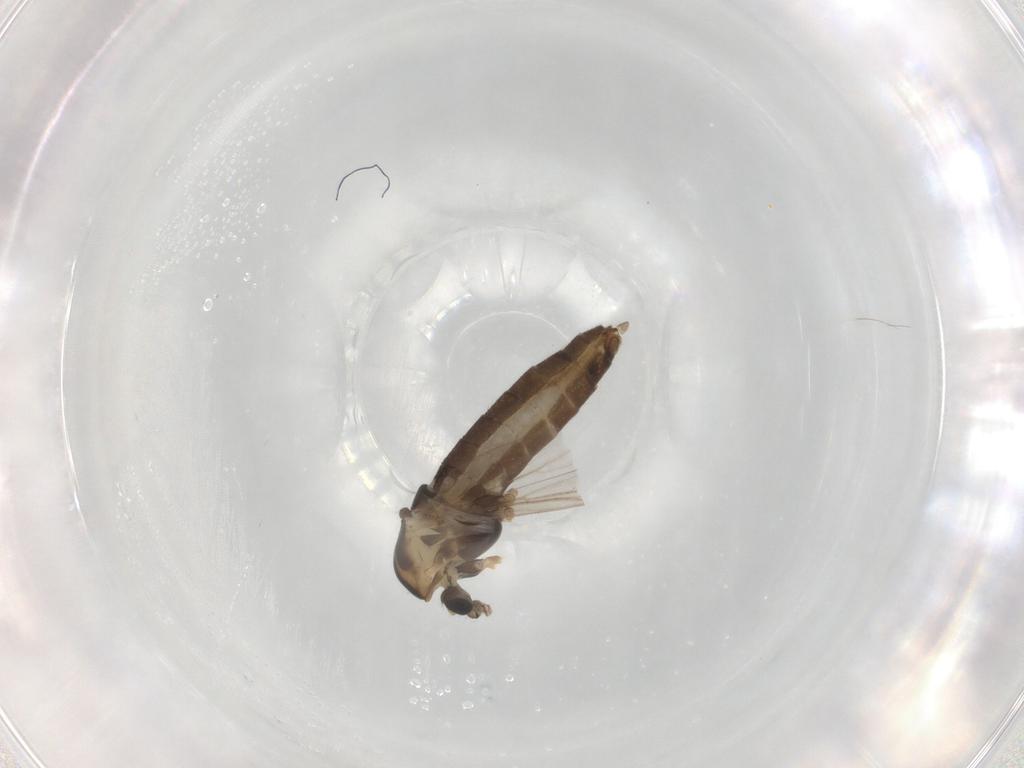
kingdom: Animalia
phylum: Arthropoda
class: Insecta
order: Diptera
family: Chironomidae
